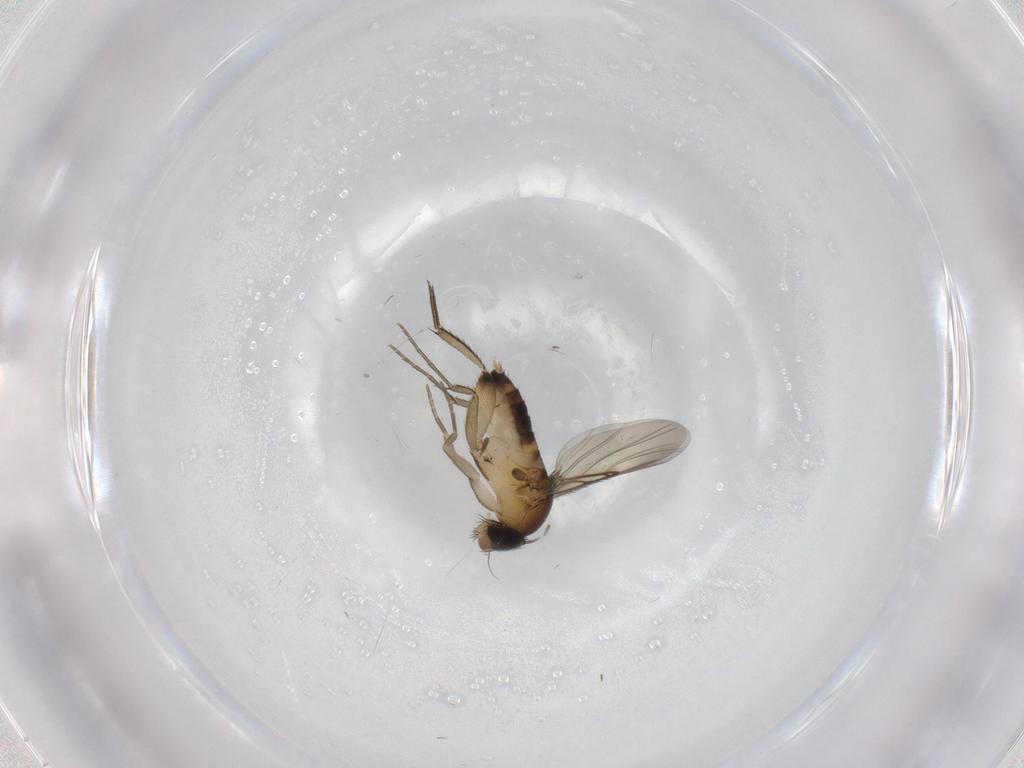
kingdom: Animalia
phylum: Arthropoda
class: Insecta
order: Diptera
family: Phoridae
